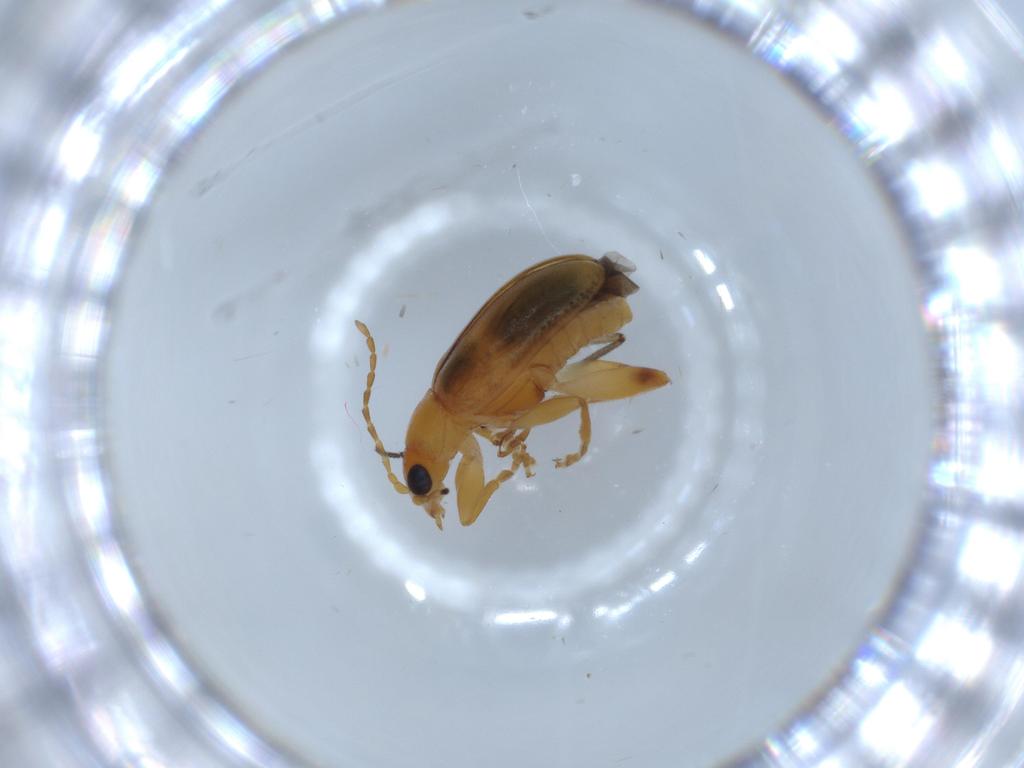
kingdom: Animalia
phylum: Arthropoda
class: Insecta
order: Coleoptera
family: Chrysomelidae
